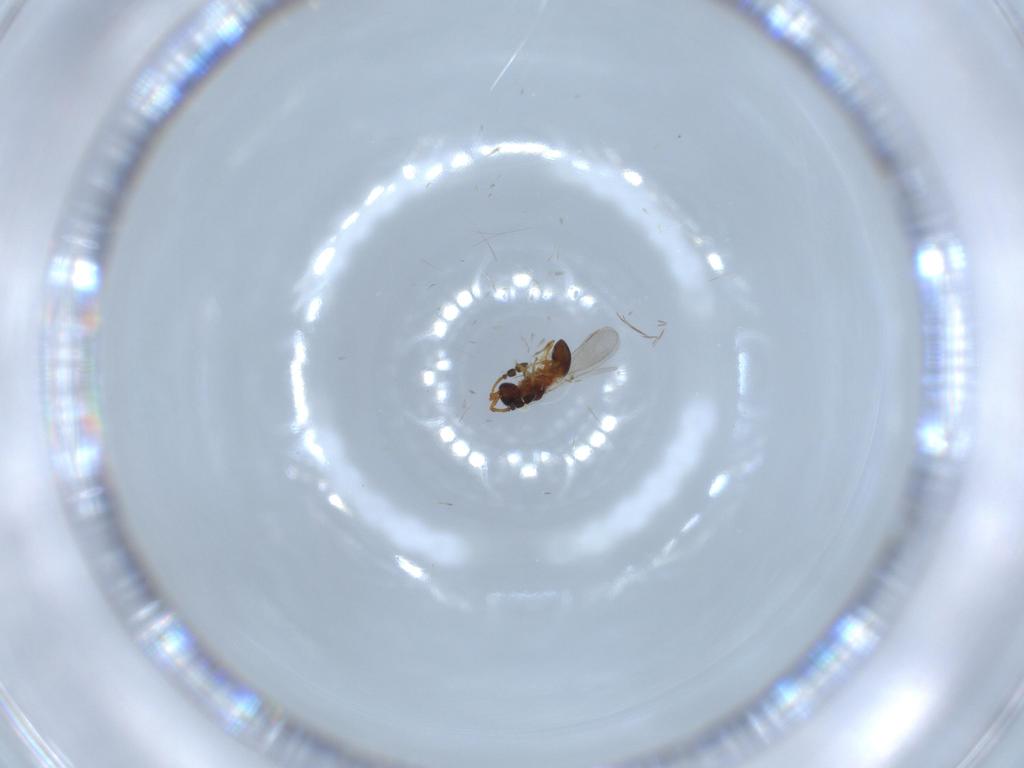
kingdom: Animalia
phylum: Arthropoda
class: Insecta
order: Hymenoptera
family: Diapriidae
